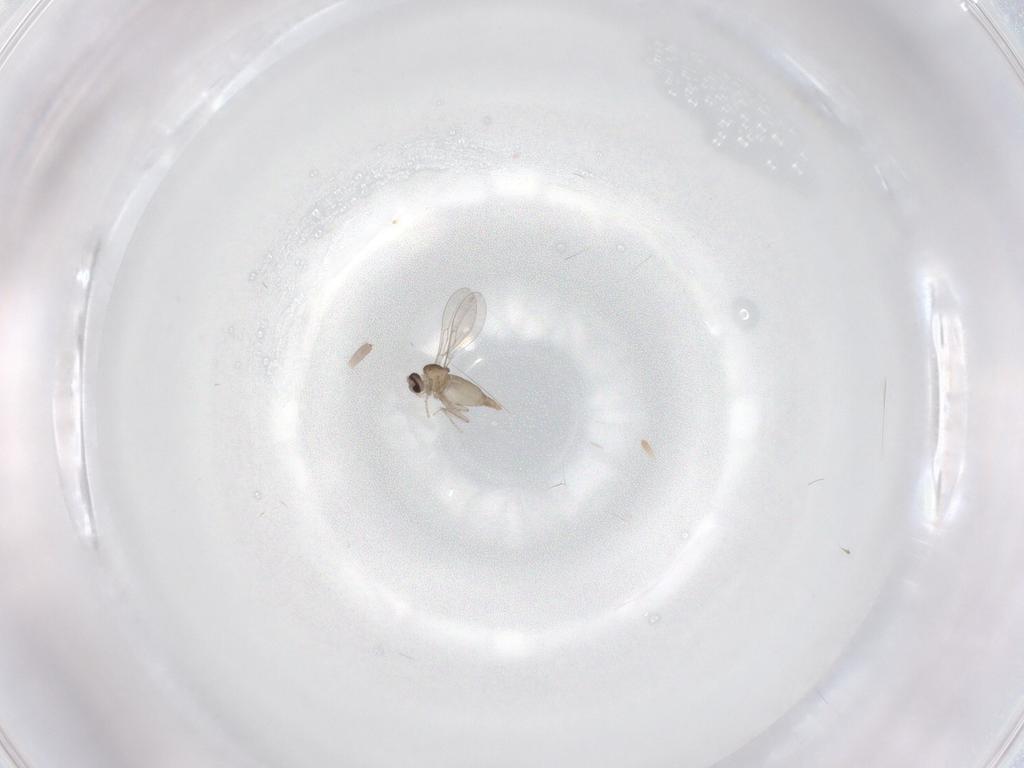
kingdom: Animalia
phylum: Arthropoda
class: Insecta
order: Diptera
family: Cecidomyiidae
